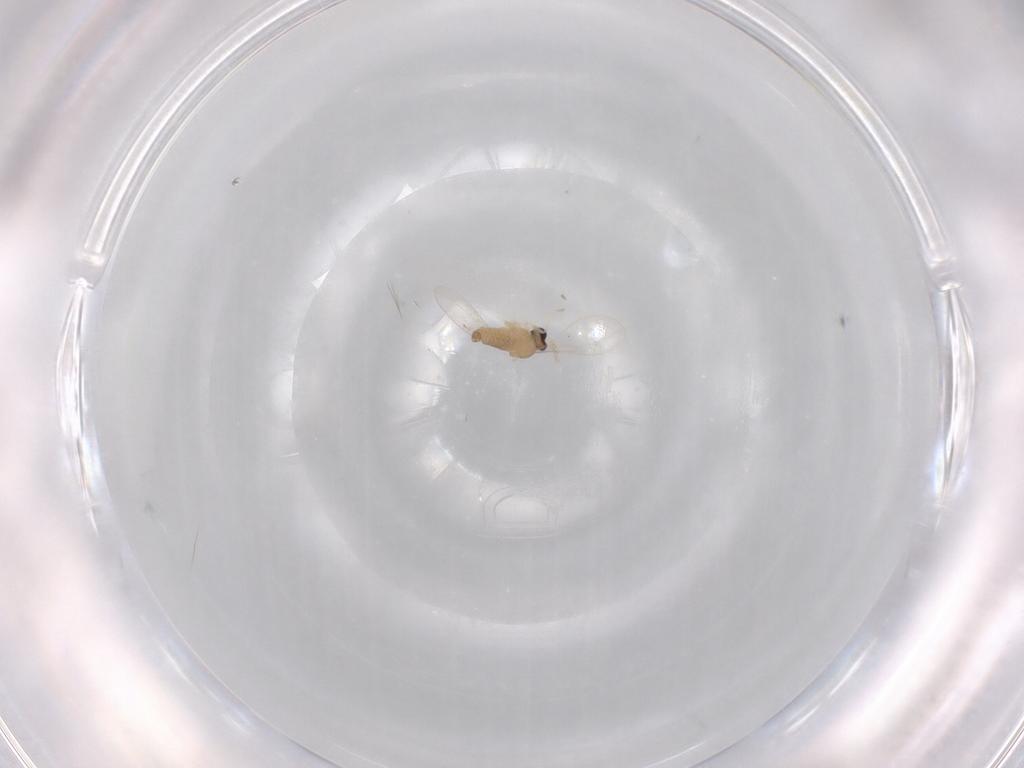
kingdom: Animalia
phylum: Arthropoda
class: Insecta
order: Diptera
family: Cecidomyiidae
